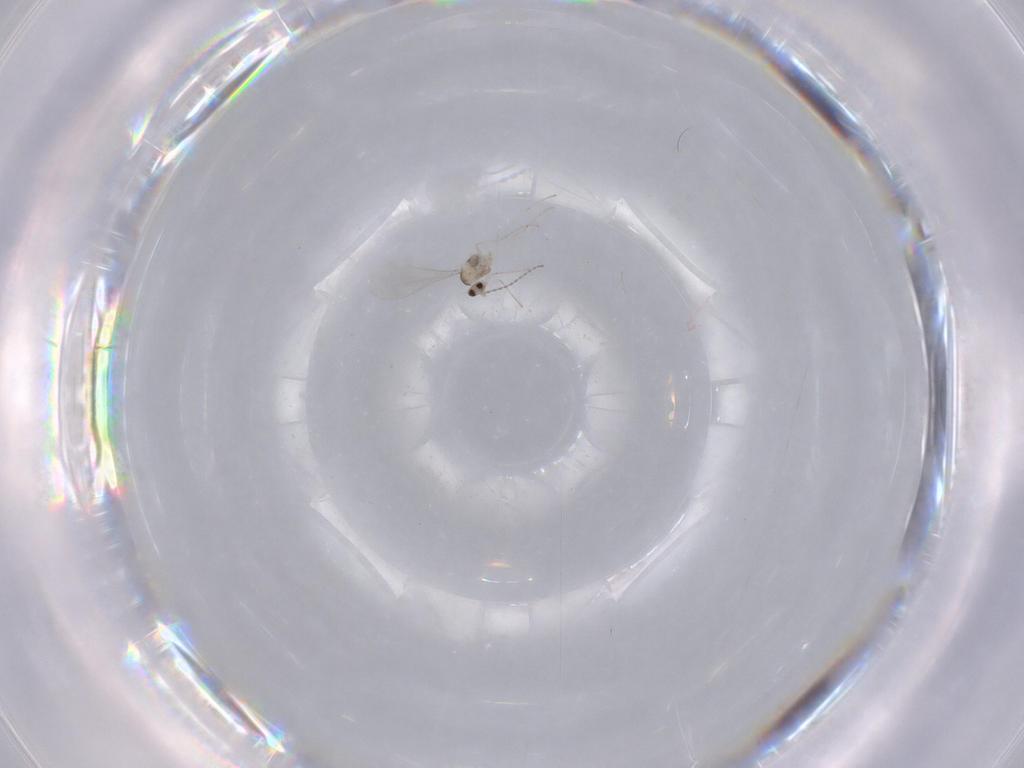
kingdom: Animalia
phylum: Arthropoda
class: Insecta
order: Diptera
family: Cecidomyiidae
